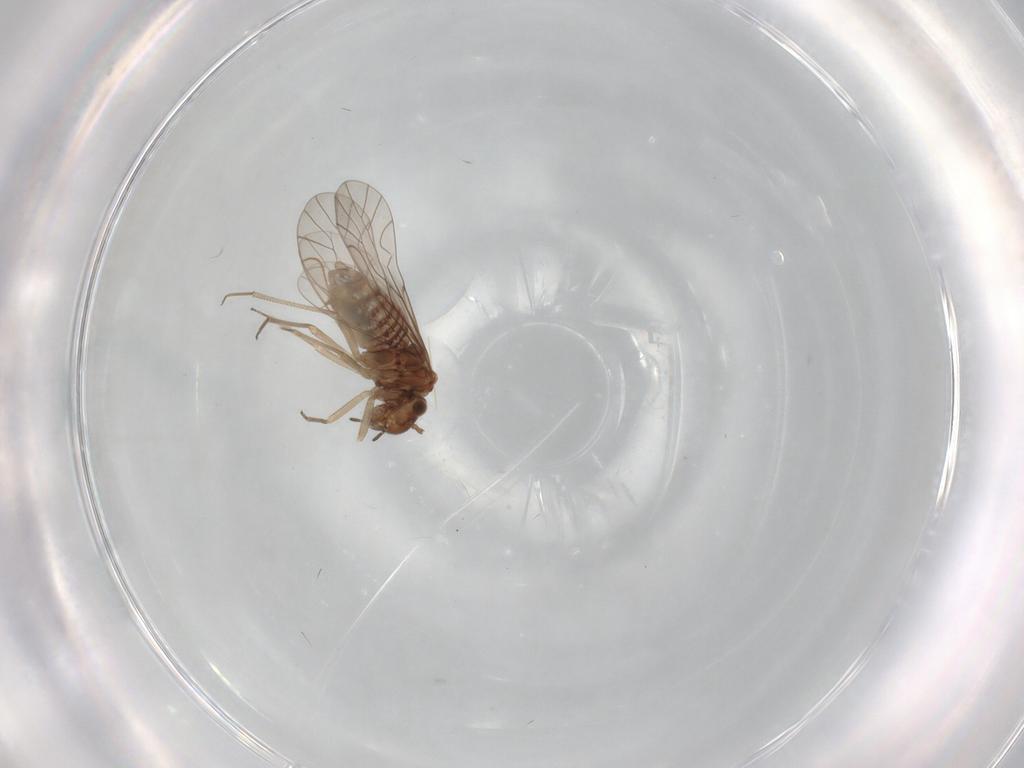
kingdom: Animalia
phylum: Arthropoda
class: Insecta
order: Psocodea
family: Lachesillidae
